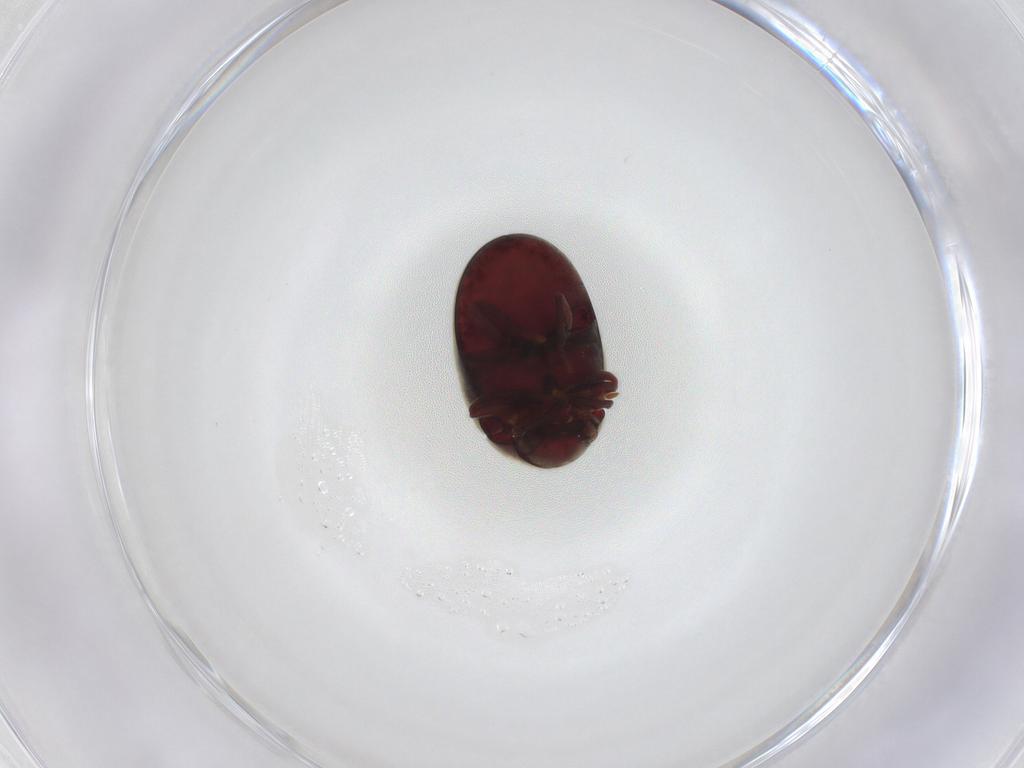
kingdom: Animalia
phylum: Arthropoda
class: Insecta
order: Coleoptera
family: Ptinidae
